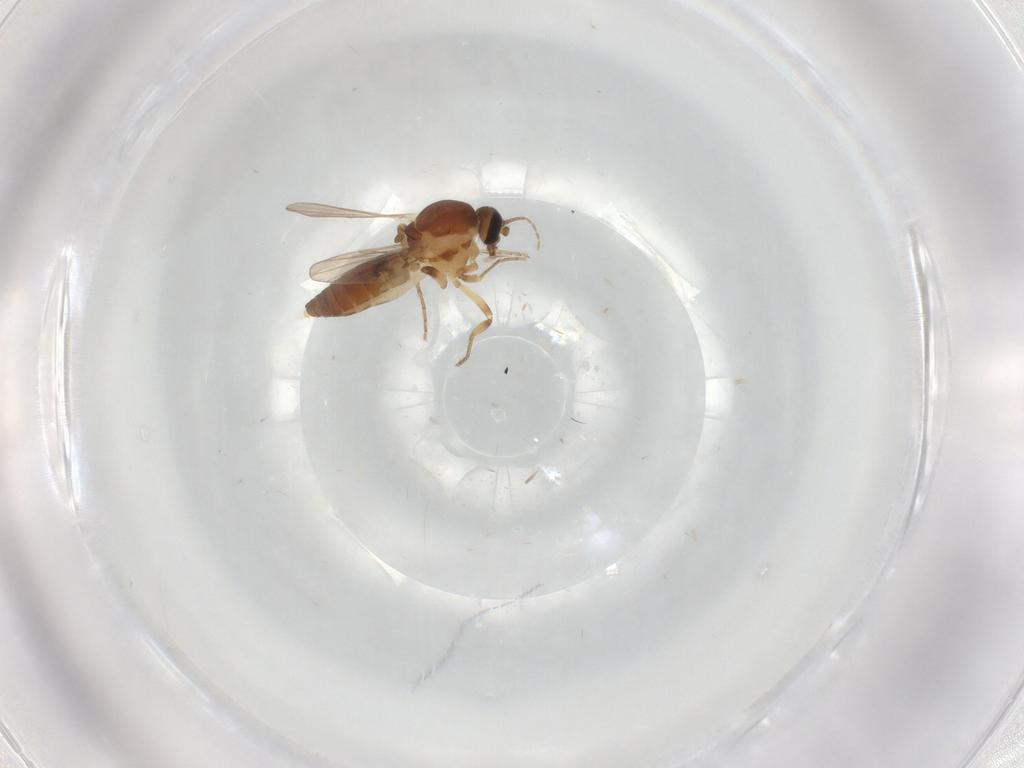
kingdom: Animalia
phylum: Arthropoda
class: Insecta
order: Diptera
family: Ceratopogonidae
